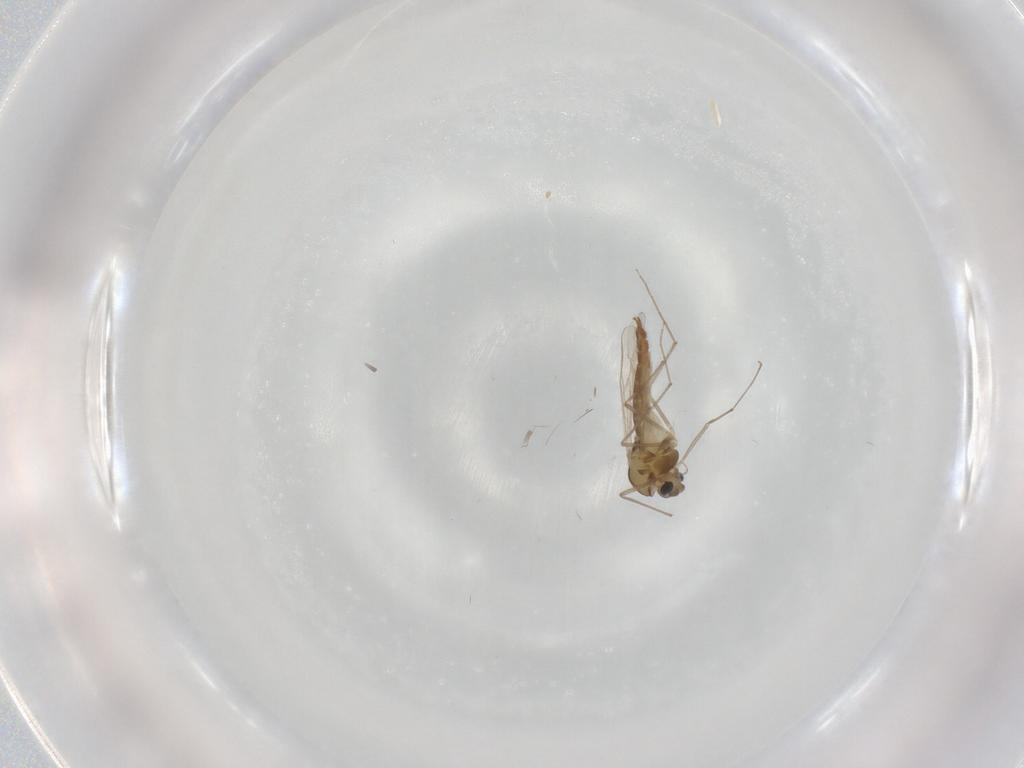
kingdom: Animalia
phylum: Arthropoda
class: Insecta
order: Diptera
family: Chironomidae
